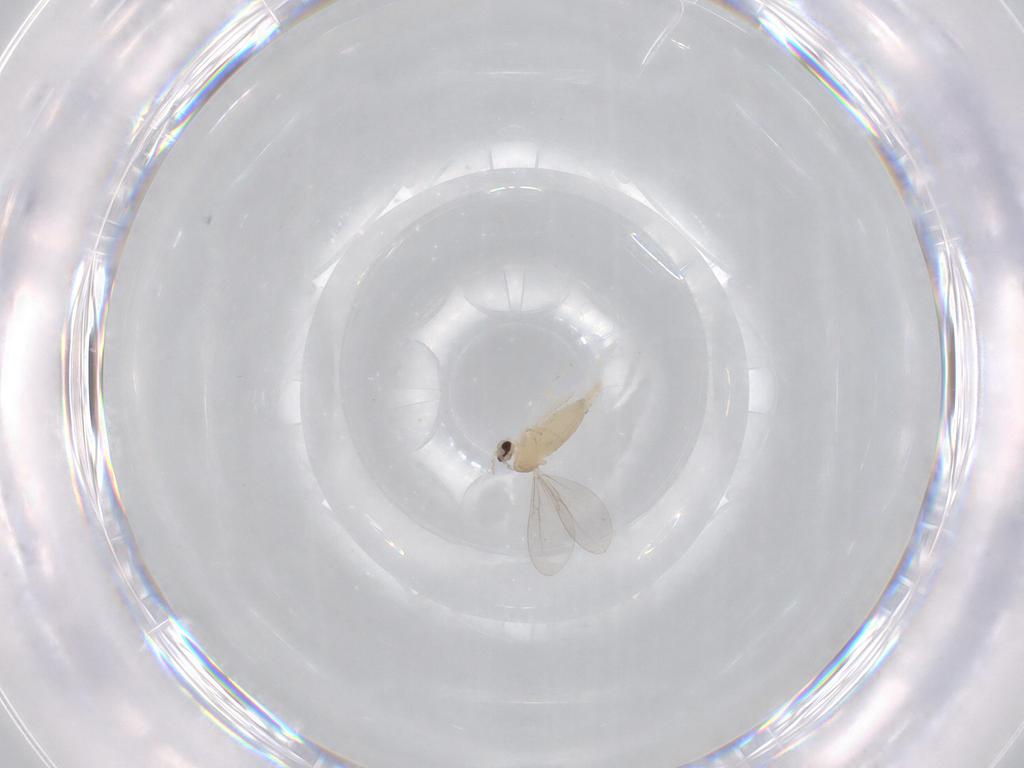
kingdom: Animalia
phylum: Arthropoda
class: Insecta
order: Diptera
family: Cecidomyiidae
